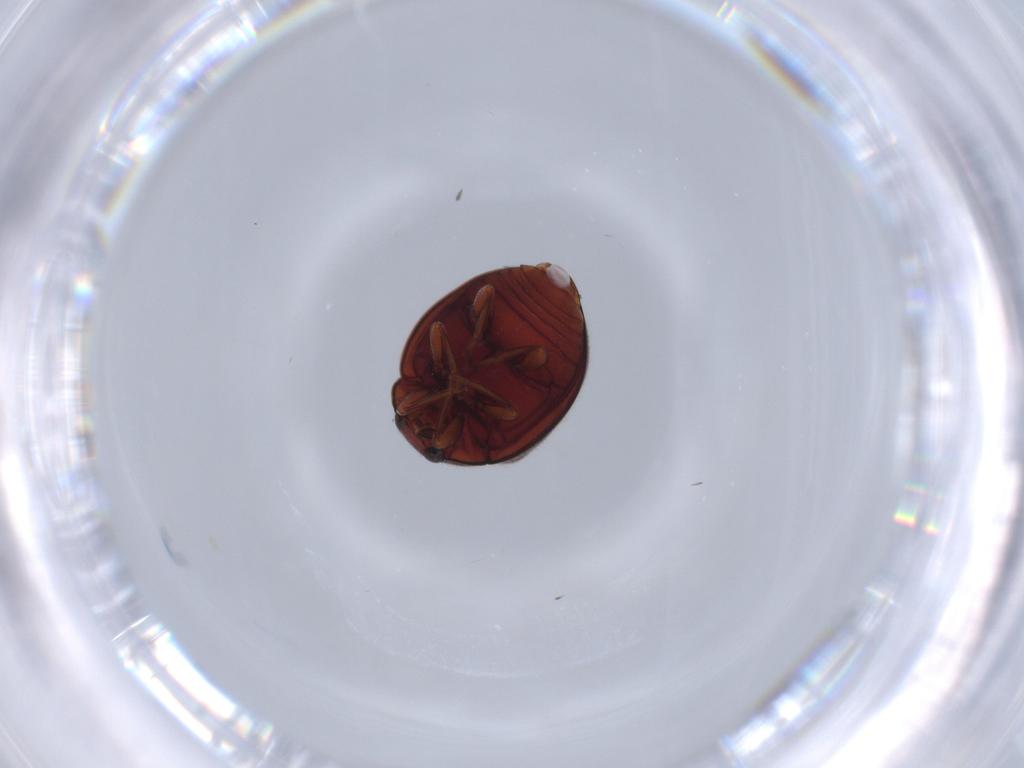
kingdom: Animalia
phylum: Arthropoda
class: Insecta
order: Coleoptera
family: Coccinellidae
